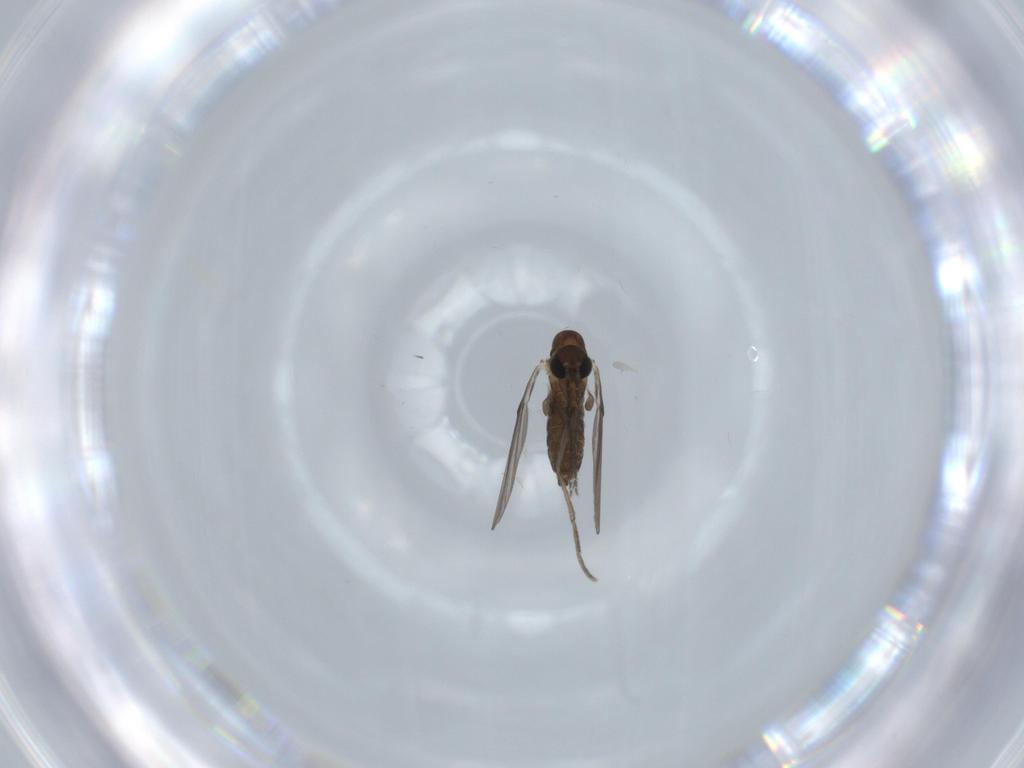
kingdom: Animalia
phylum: Arthropoda
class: Insecta
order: Diptera
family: Psychodidae
